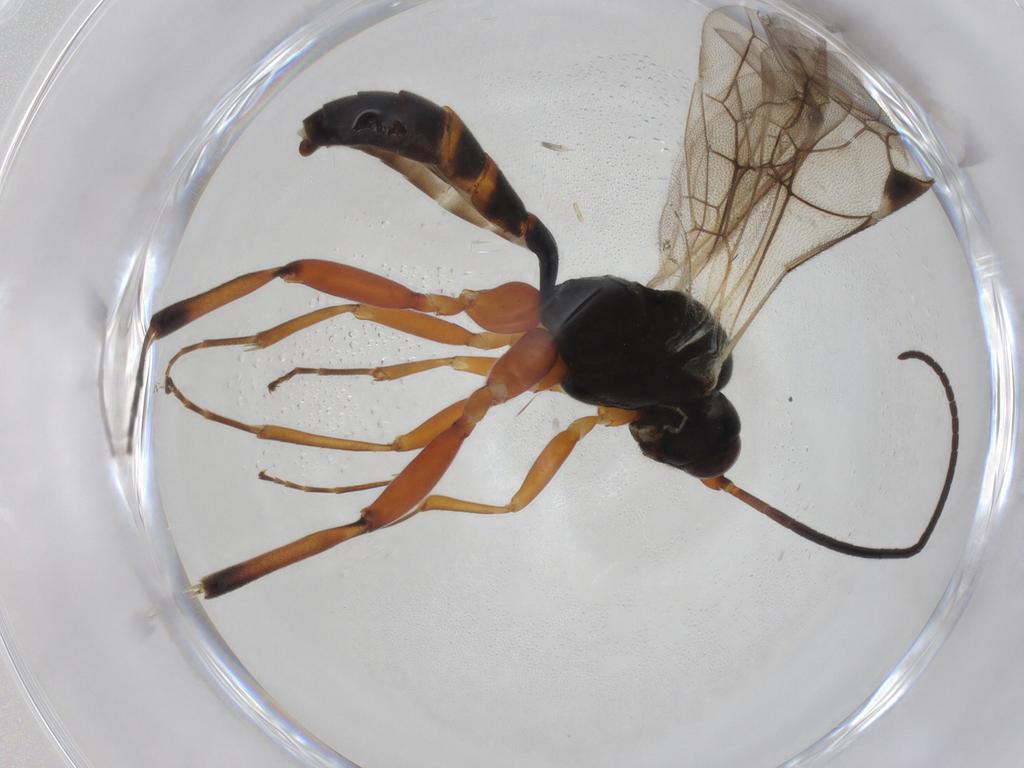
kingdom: Animalia
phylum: Arthropoda
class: Insecta
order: Hymenoptera
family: Ichneumonidae
